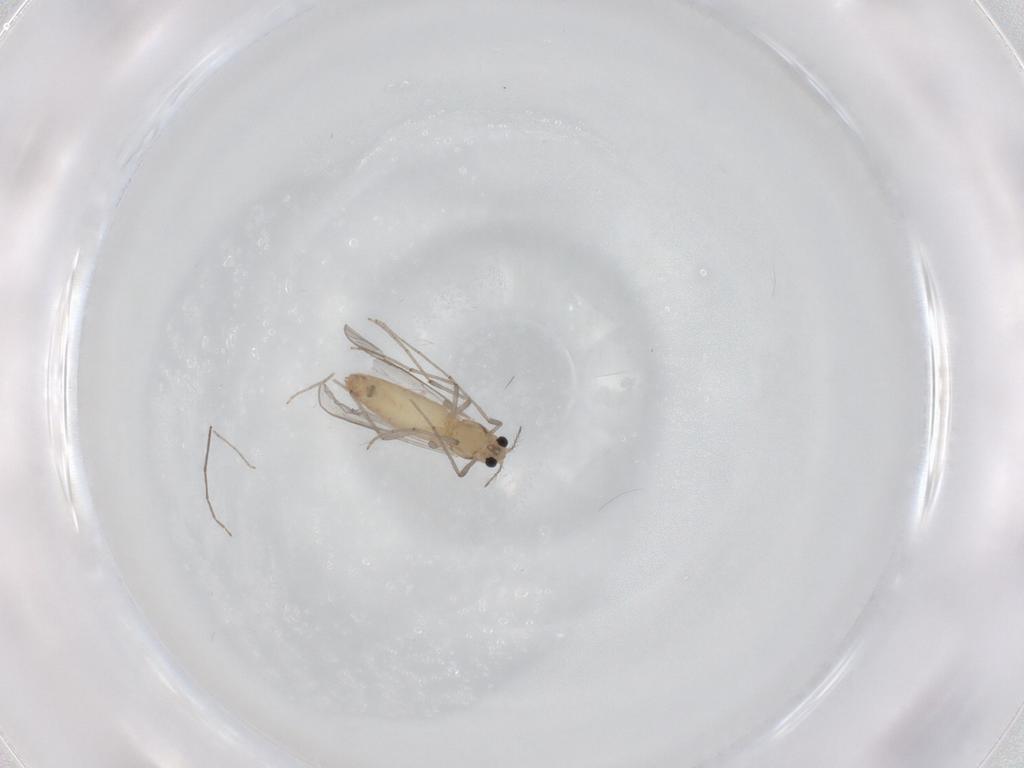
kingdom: Animalia
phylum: Arthropoda
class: Insecta
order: Diptera
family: Chironomidae
